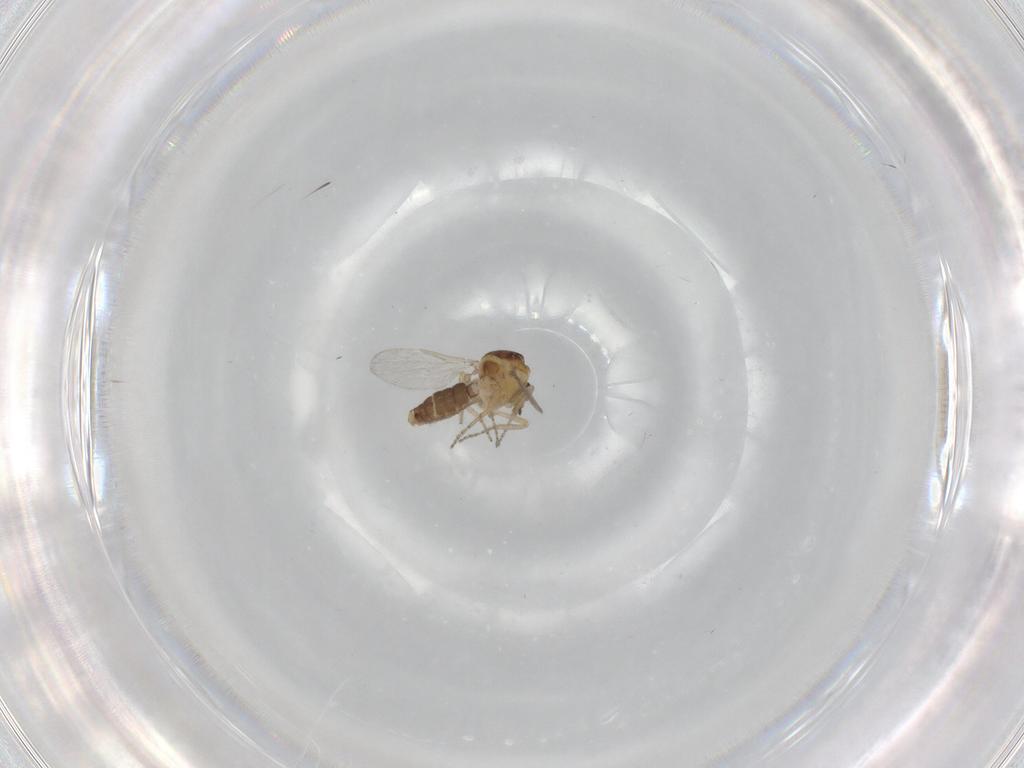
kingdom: Animalia
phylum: Arthropoda
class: Insecta
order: Diptera
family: Ceratopogonidae
